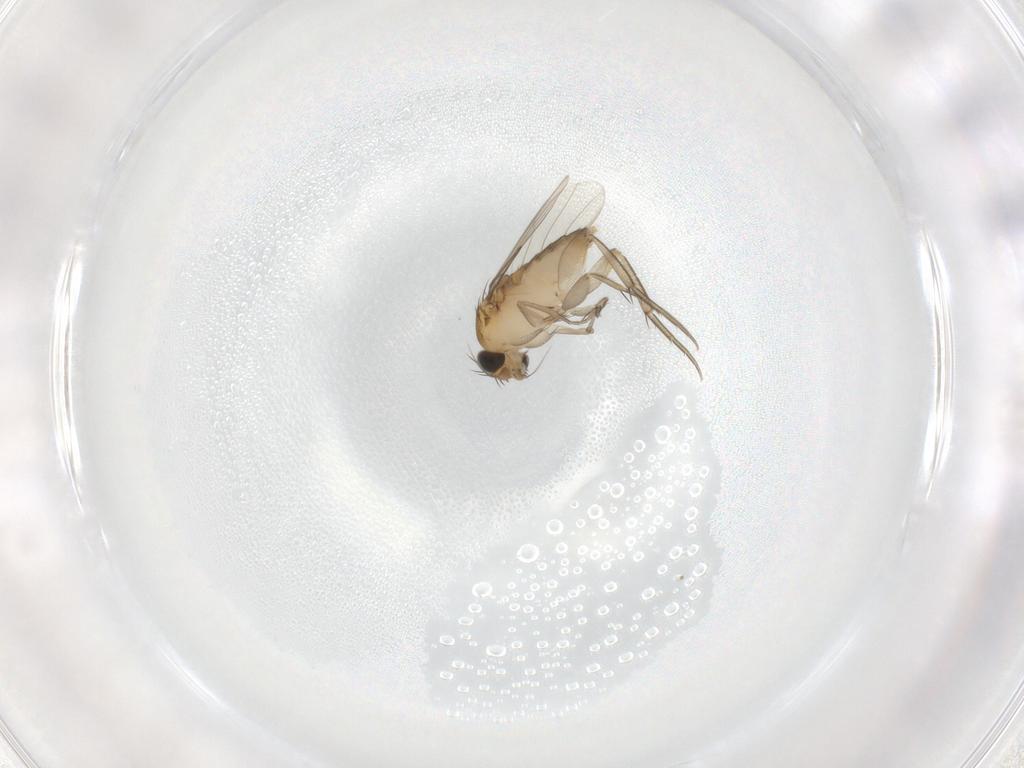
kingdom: Animalia
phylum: Arthropoda
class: Insecta
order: Diptera
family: Phoridae
